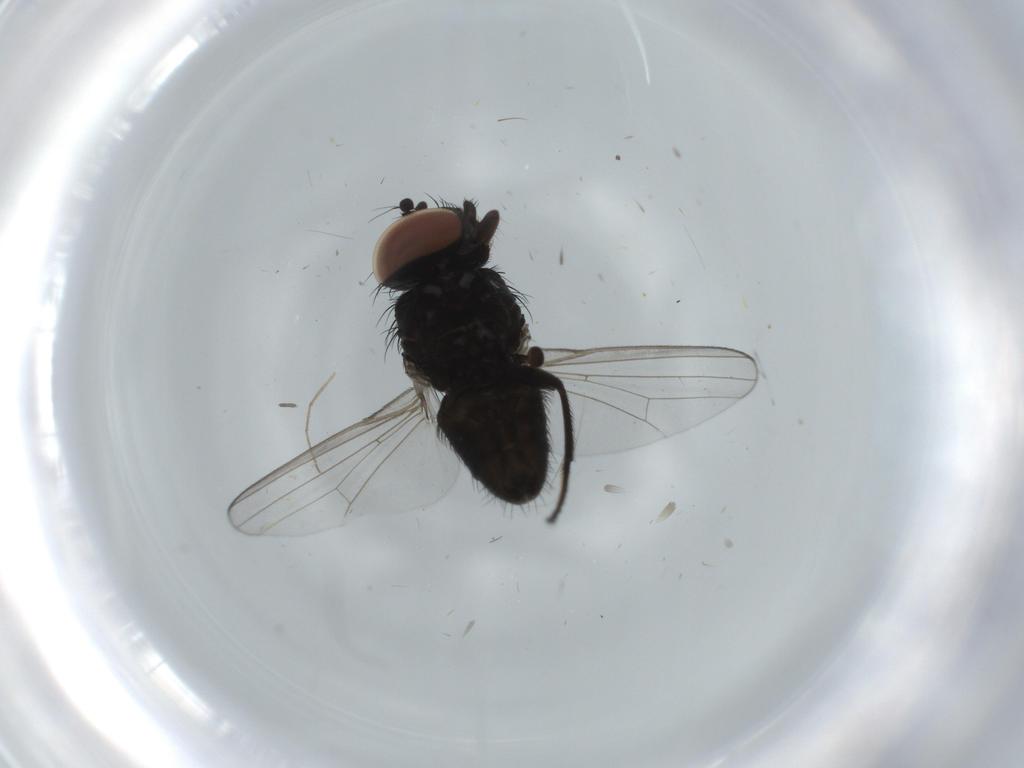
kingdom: Animalia
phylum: Arthropoda
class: Insecta
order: Diptera
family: Milichiidae
